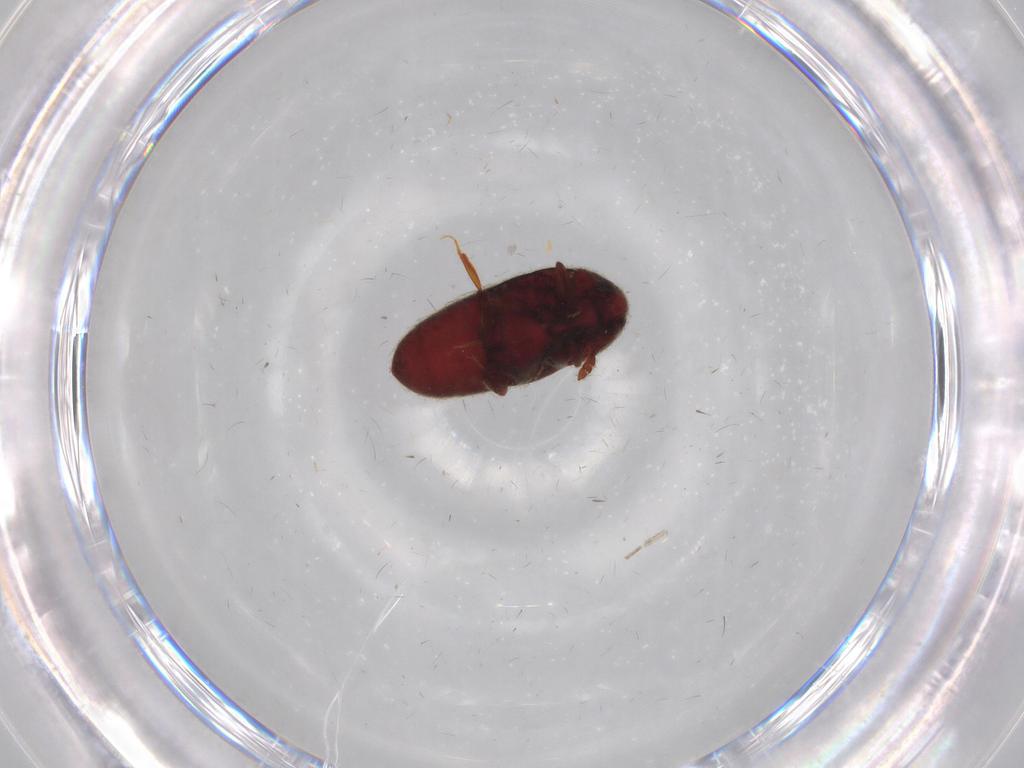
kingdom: Animalia
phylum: Arthropoda
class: Insecta
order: Coleoptera
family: Throscidae
